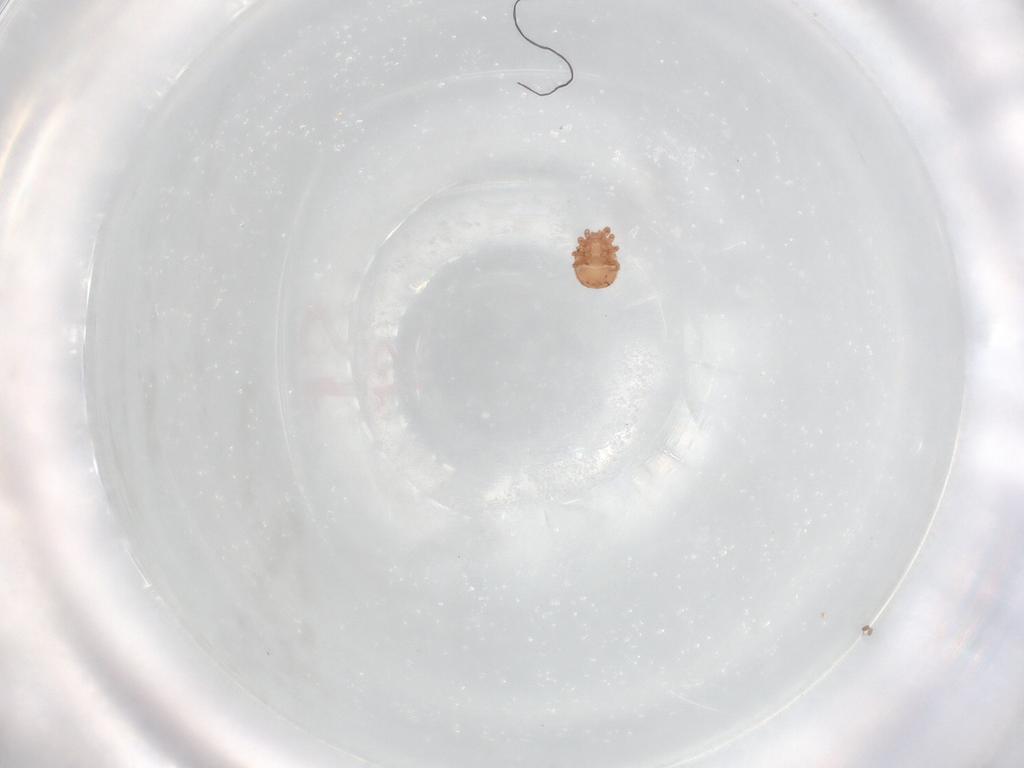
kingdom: Animalia
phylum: Arthropoda
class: Arachnida
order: Mesostigmata
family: Zerconidae
